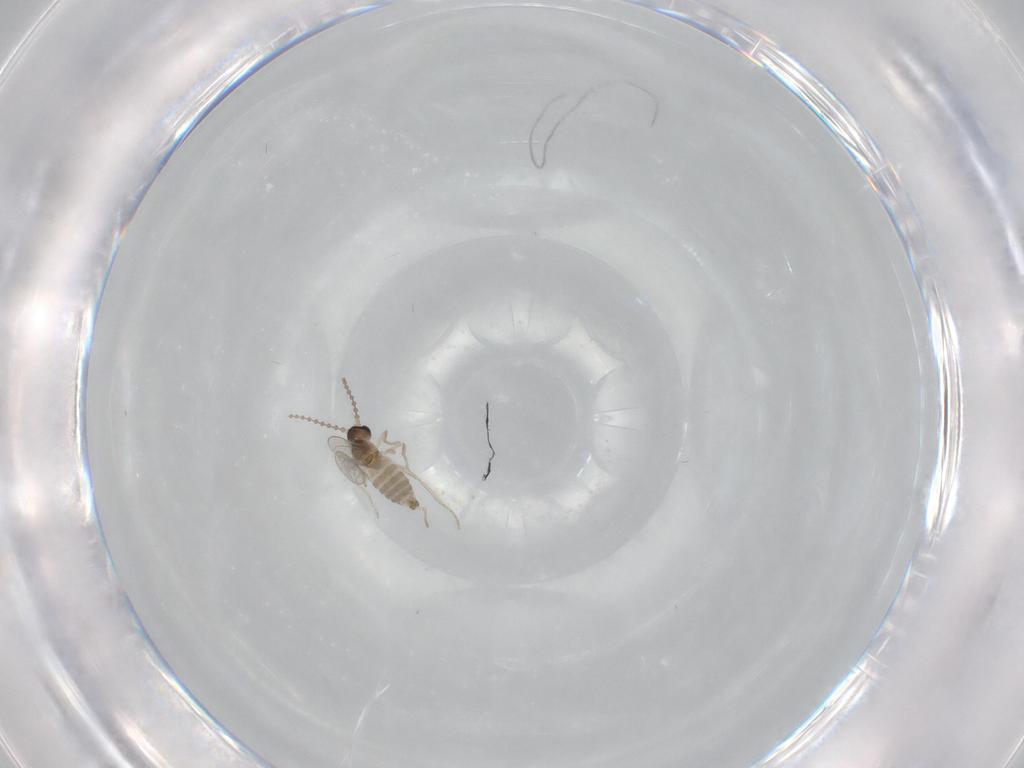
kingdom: Animalia
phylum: Arthropoda
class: Insecta
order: Diptera
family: Cecidomyiidae
